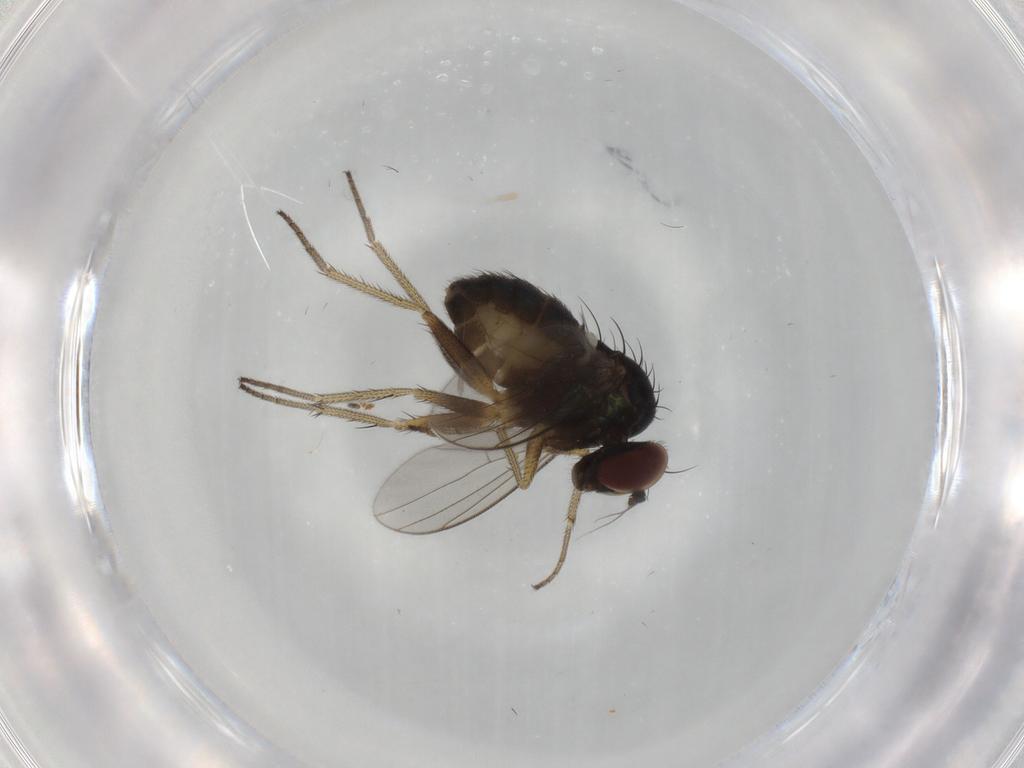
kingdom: Animalia
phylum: Arthropoda
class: Insecta
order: Diptera
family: Chironomidae
